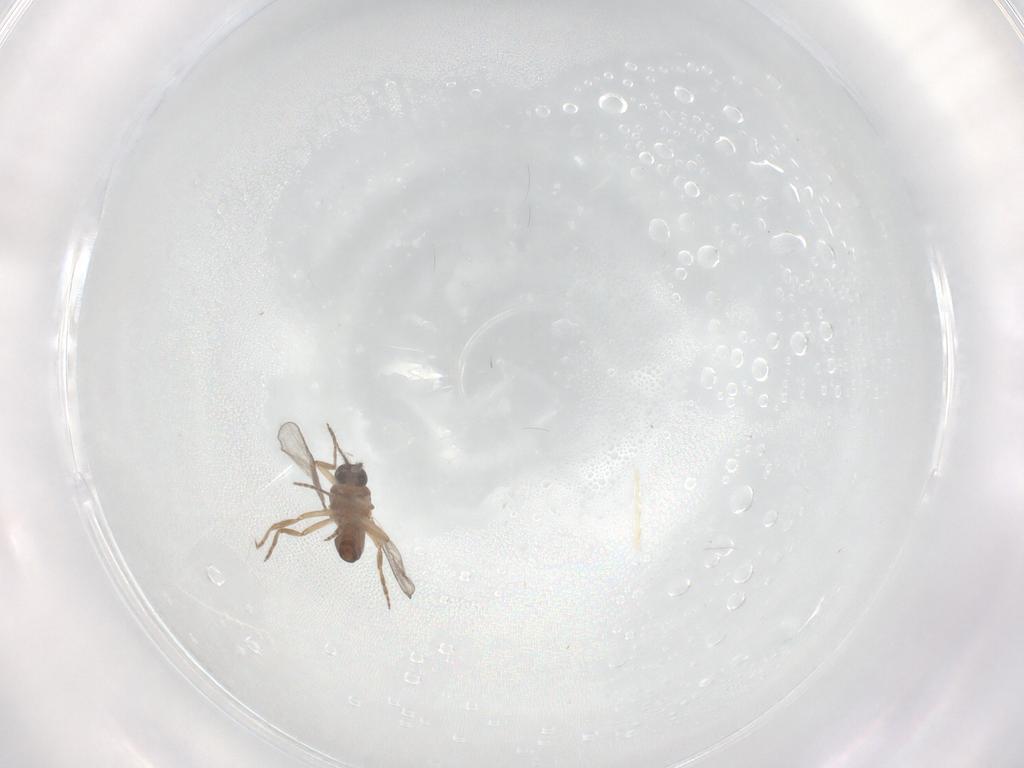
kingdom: Animalia
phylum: Arthropoda
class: Insecta
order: Diptera
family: Chironomidae
